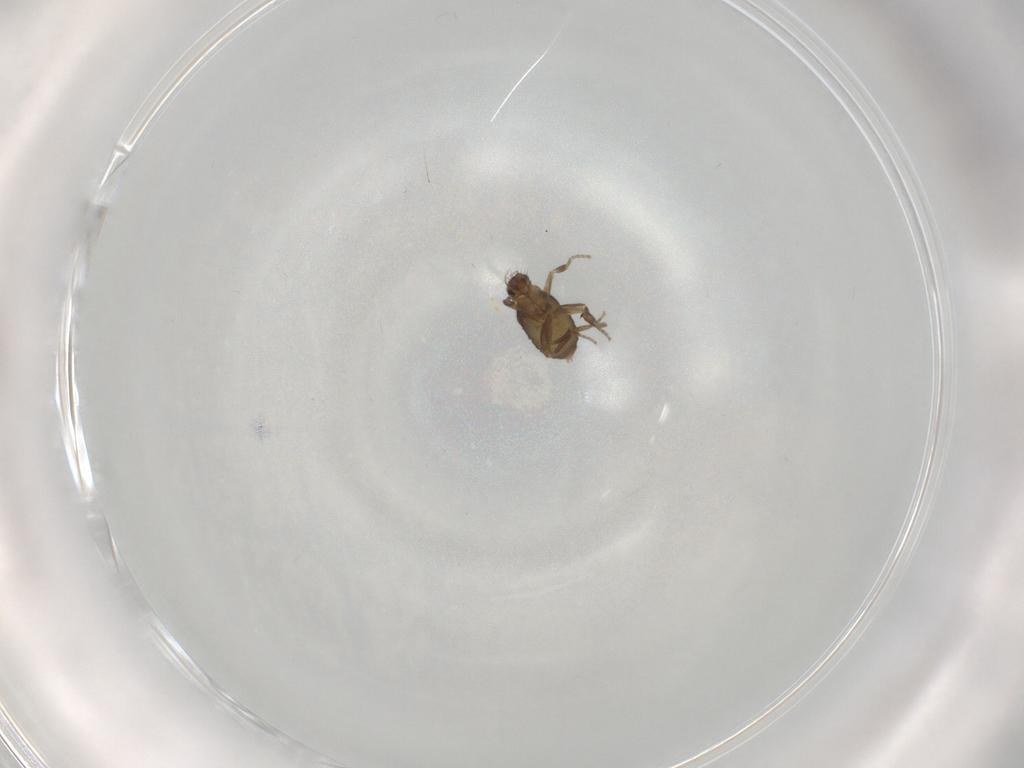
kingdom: Animalia
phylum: Arthropoda
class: Insecta
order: Diptera
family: Phoridae
